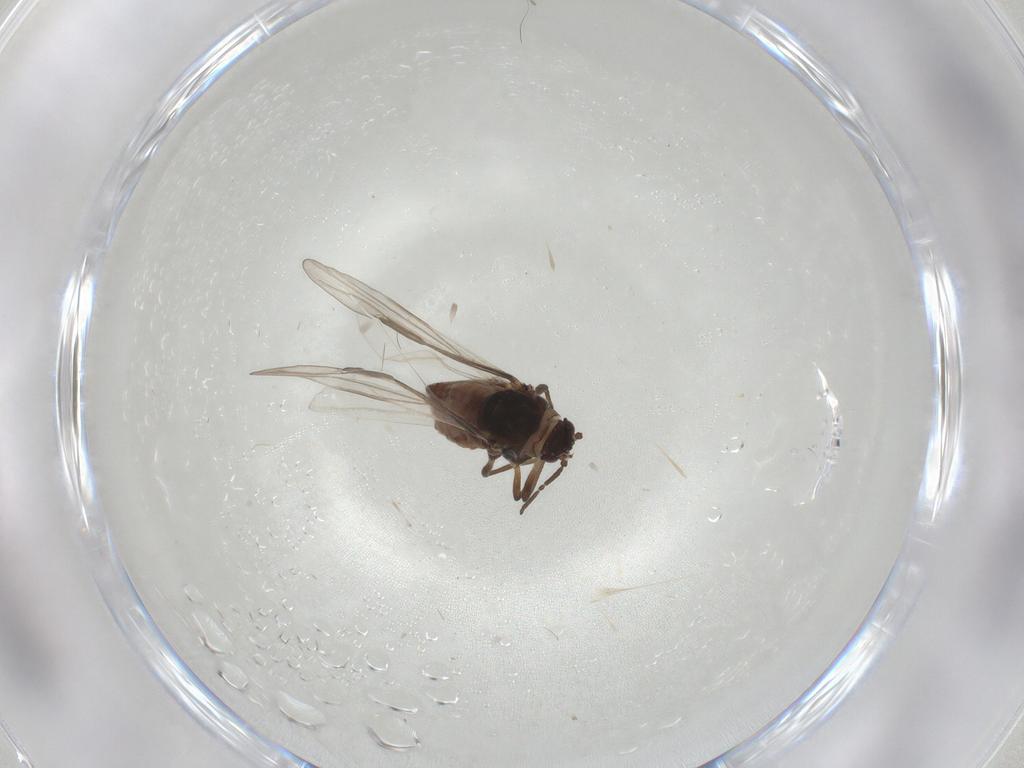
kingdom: Animalia
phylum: Arthropoda
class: Insecta
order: Hemiptera
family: Aphididae
